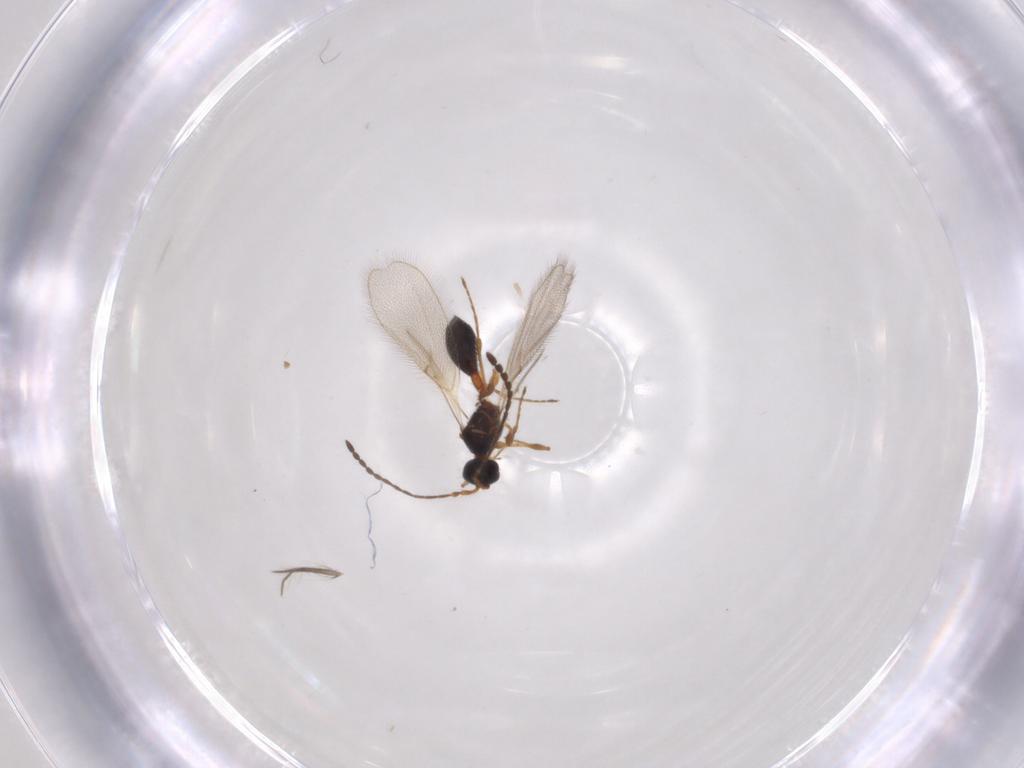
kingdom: Animalia
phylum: Arthropoda
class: Insecta
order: Hymenoptera
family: Diapriidae
